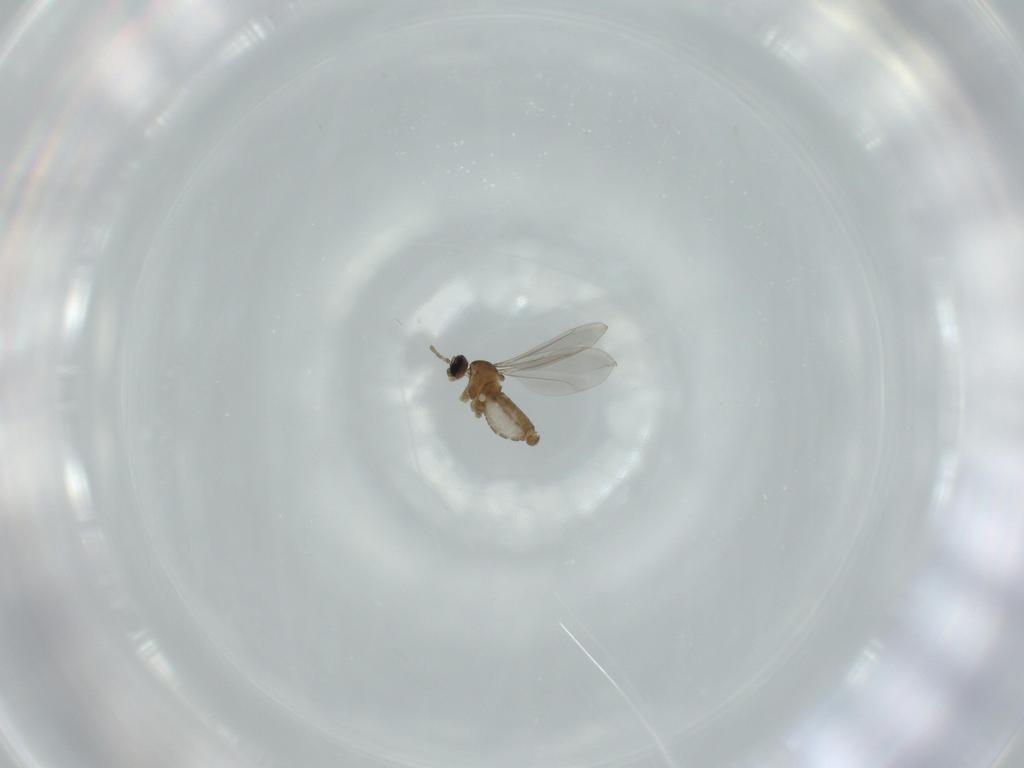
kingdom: Animalia
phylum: Arthropoda
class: Insecta
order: Diptera
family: Cecidomyiidae
